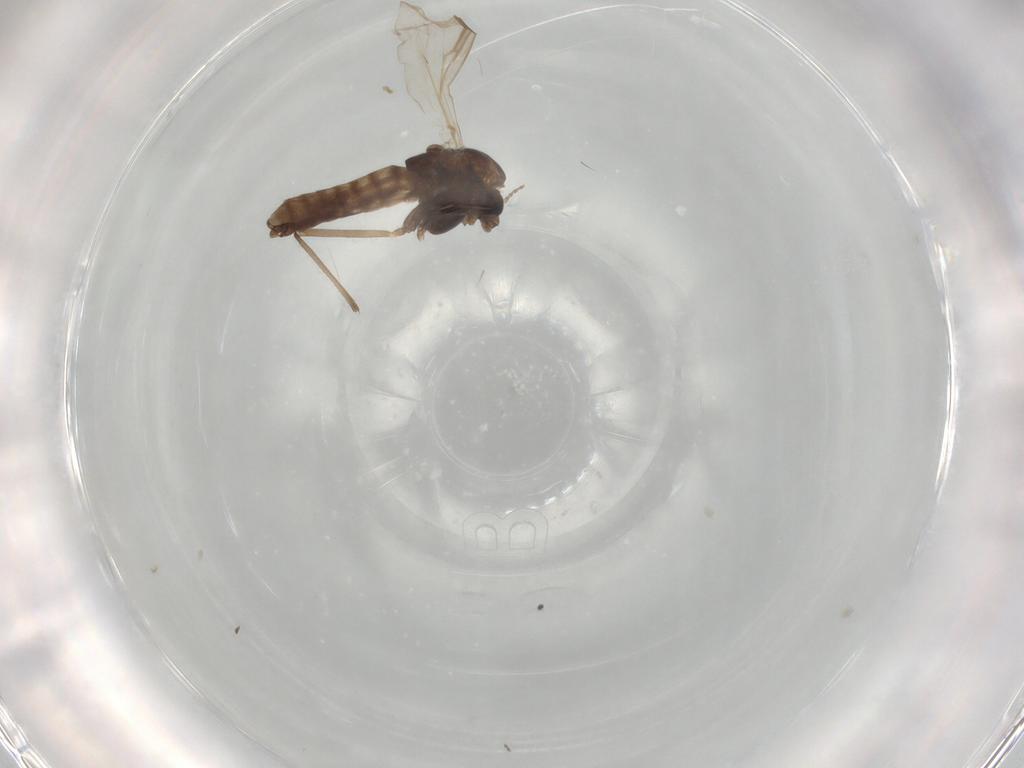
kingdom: Animalia
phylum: Arthropoda
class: Insecta
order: Diptera
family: Chironomidae
